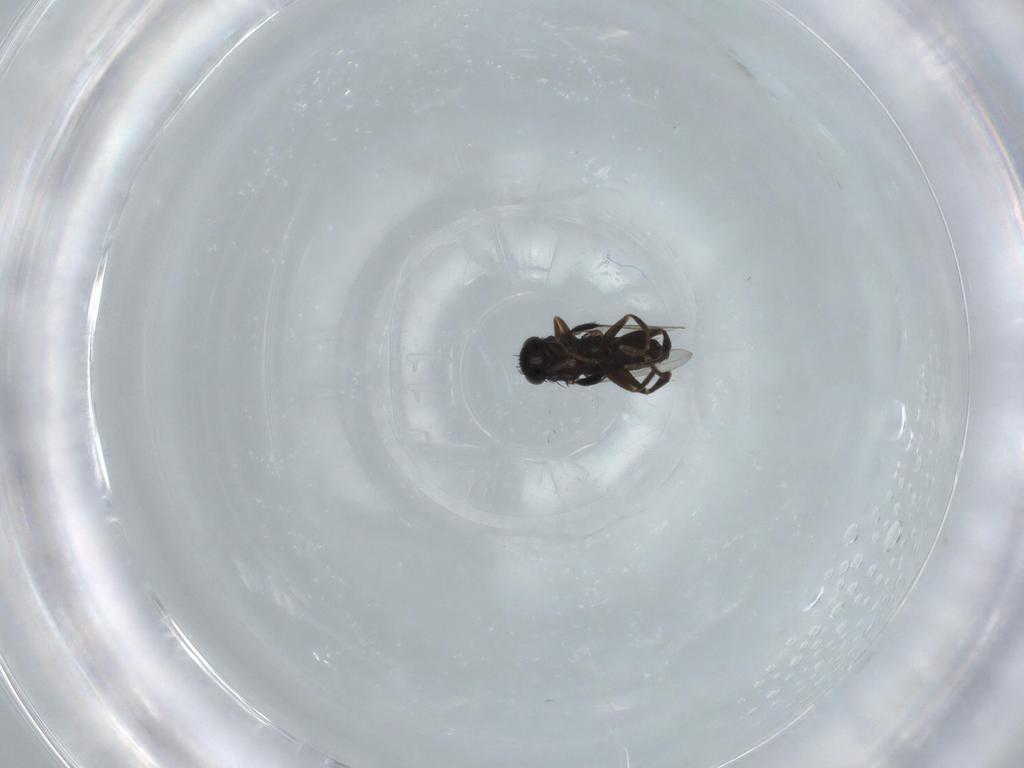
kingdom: Animalia
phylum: Arthropoda
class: Insecta
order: Diptera
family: Phoridae
